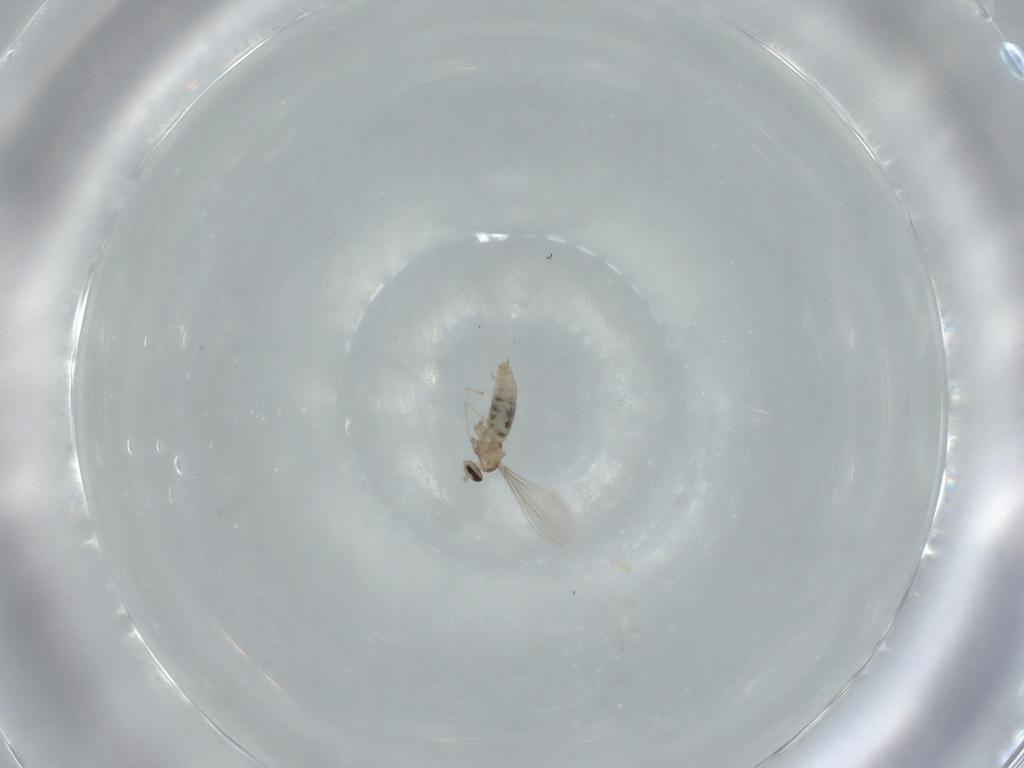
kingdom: Animalia
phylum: Arthropoda
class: Insecta
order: Diptera
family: Cecidomyiidae
